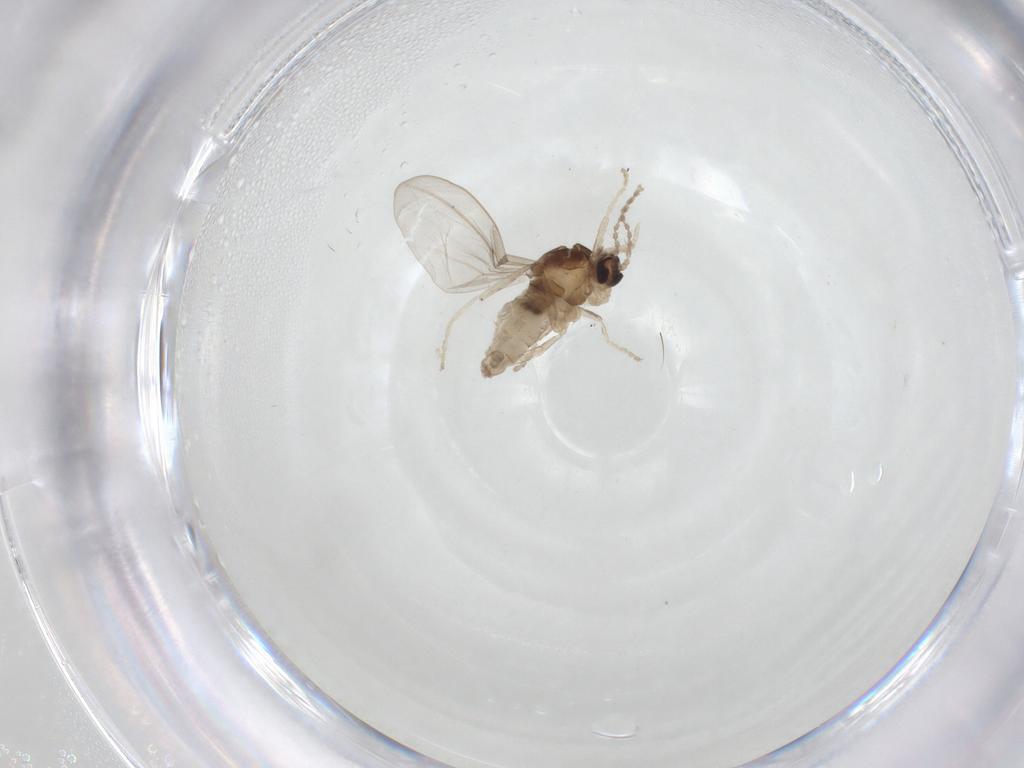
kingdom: Animalia
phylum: Arthropoda
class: Insecta
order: Diptera
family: Cecidomyiidae
